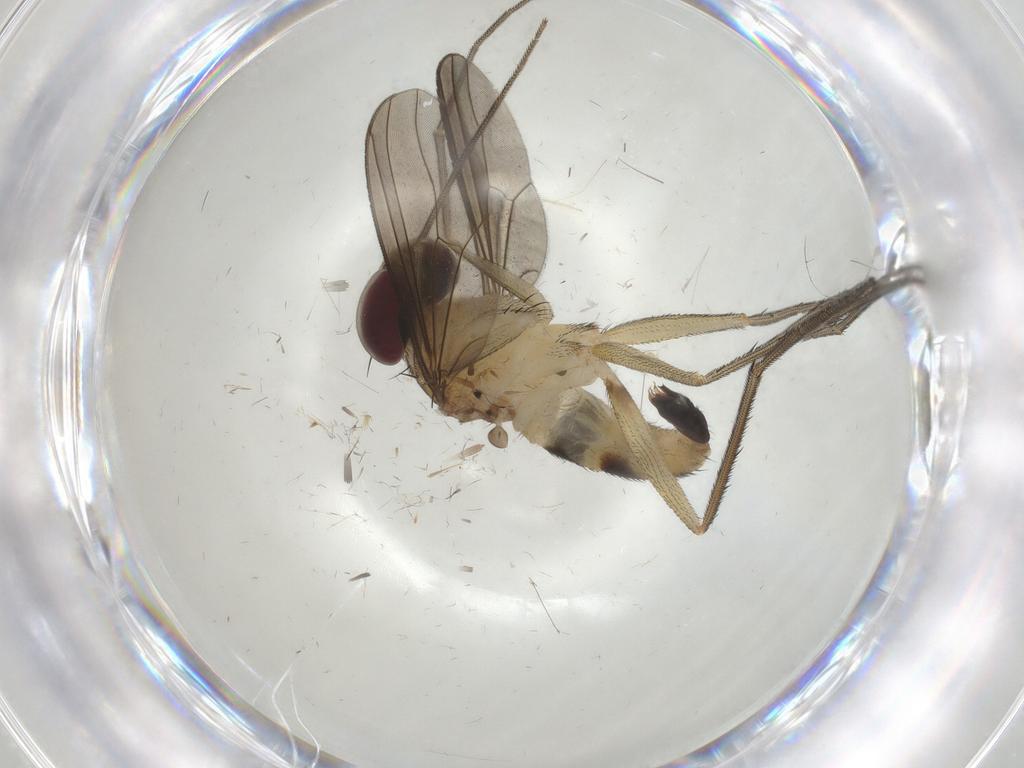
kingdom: Animalia
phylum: Arthropoda
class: Insecta
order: Diptera
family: Dolichopodidae
